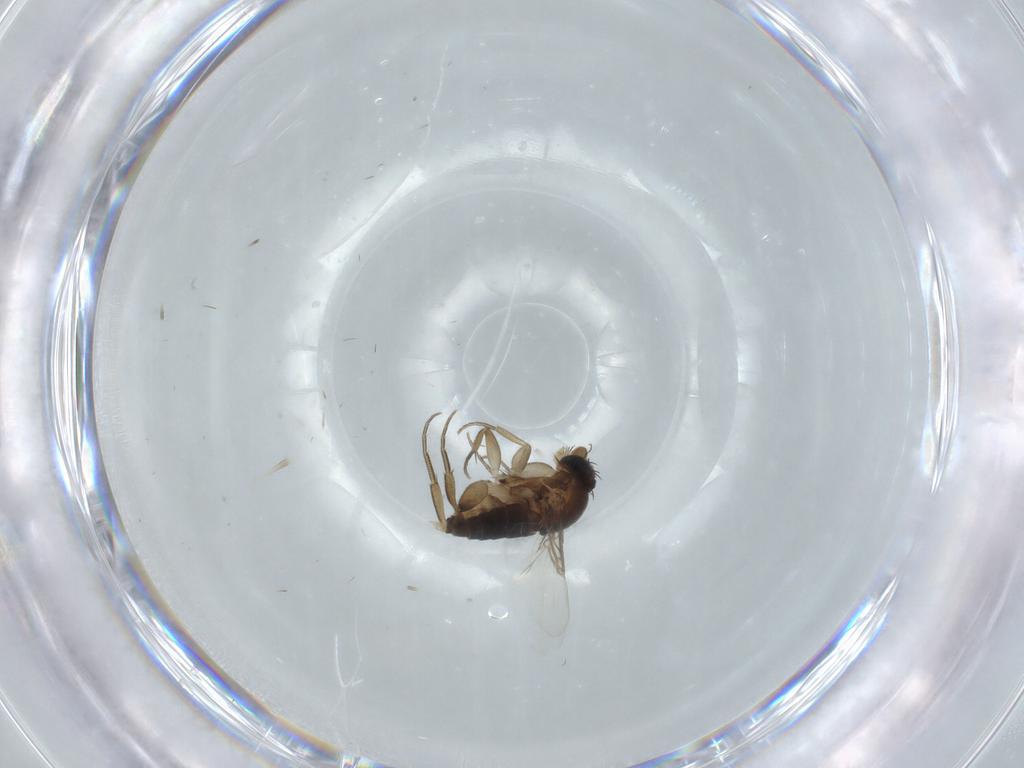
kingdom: Animalia
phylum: Arthropoda
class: Insecta
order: Diptera
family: Phoridae
